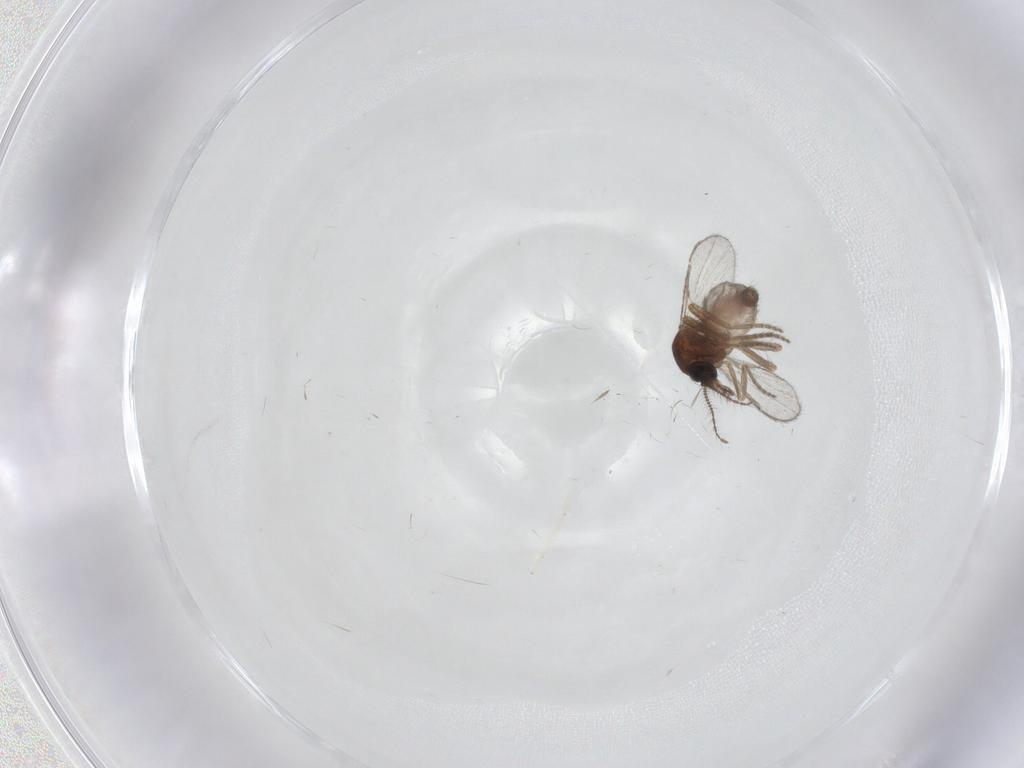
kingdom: Animalia
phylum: Arthropoda
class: Insecta
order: Diptera
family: Ceratopogonidae
